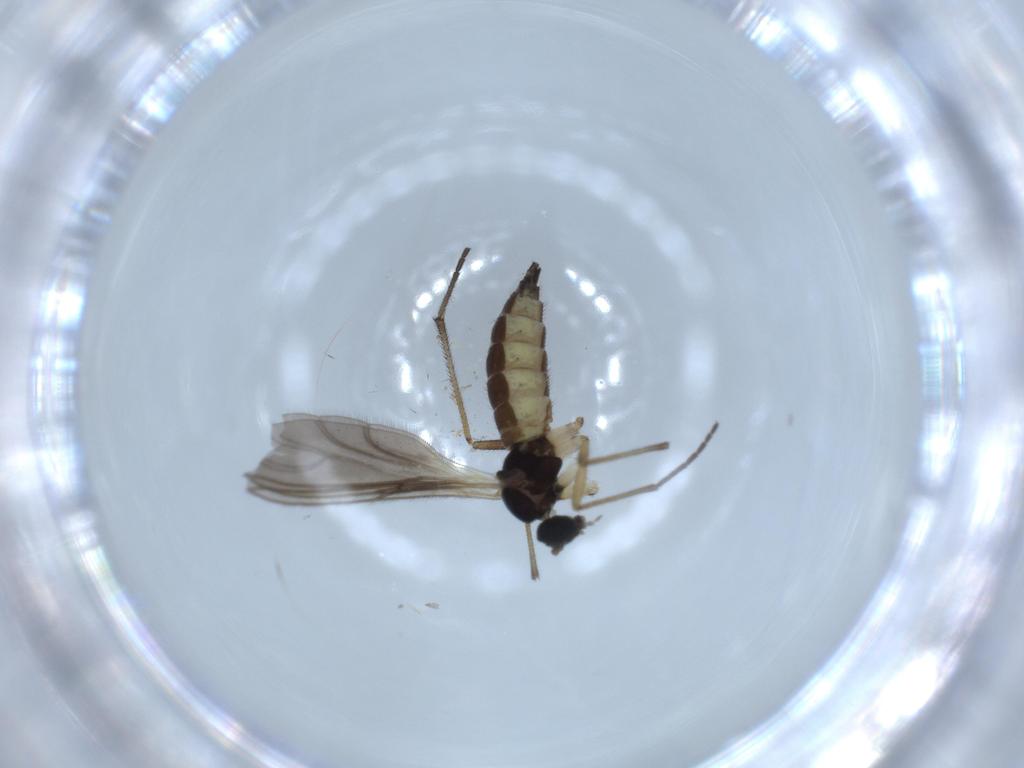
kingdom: Animalia
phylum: Arthropoda
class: Insecta
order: Diptera
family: Sciaridae
